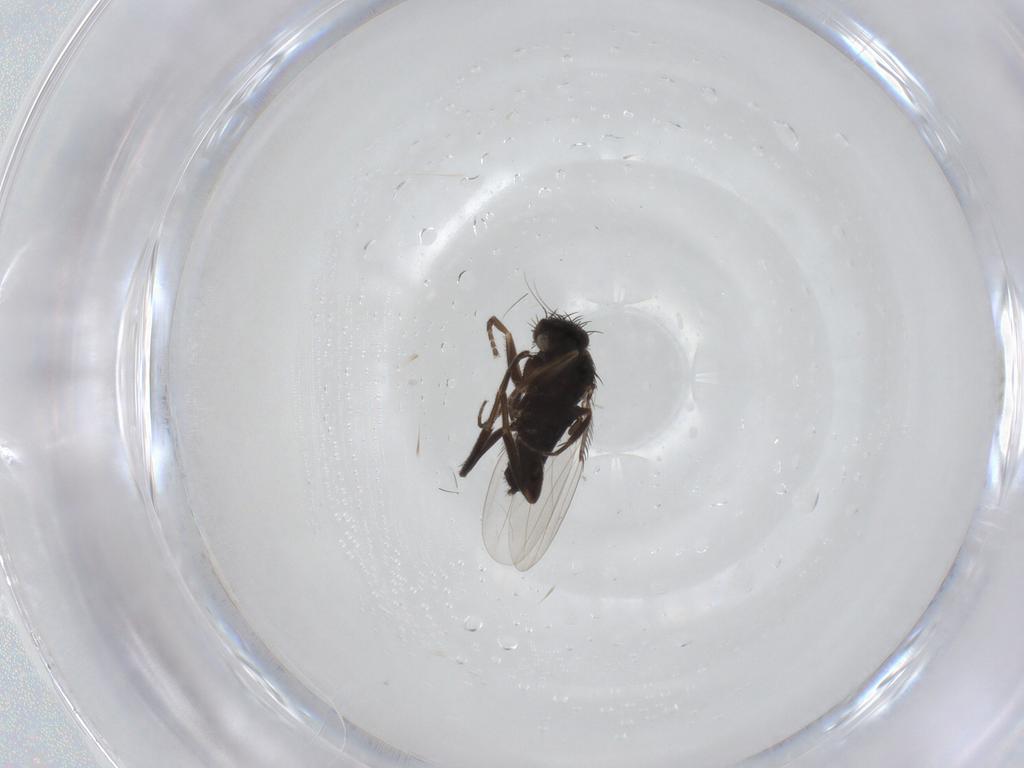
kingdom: Animalia
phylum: Arthropoda
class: Insecta
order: Diptera
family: Phoridae
